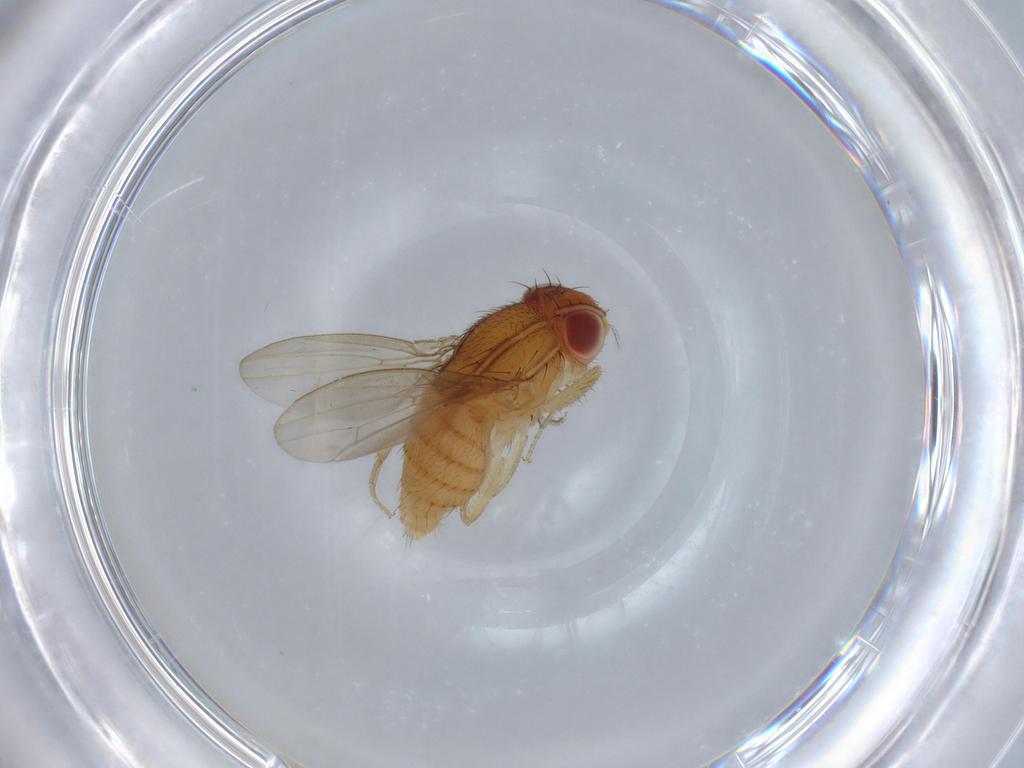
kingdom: Animalia
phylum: Arthropoda
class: Insecta
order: Diptera
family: Drosophilidae
